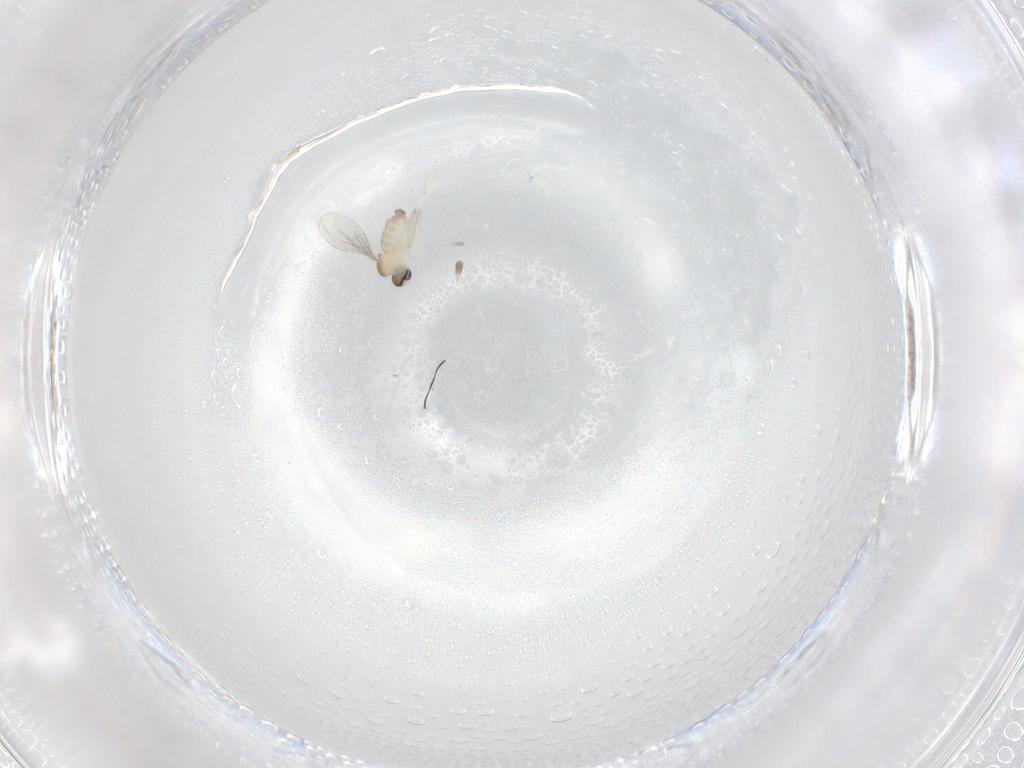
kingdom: Animalia
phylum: Arthropoda
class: Insecta
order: Diptera
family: Cecidomyiidae
